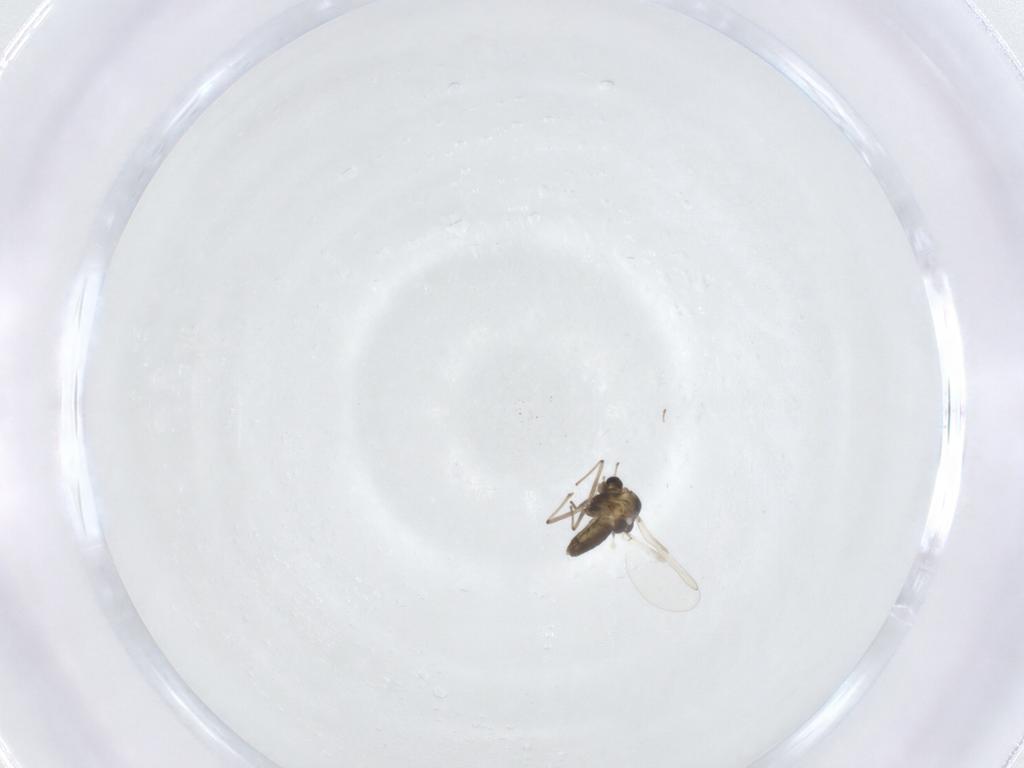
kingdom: Animalia
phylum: Arthropoda
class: Insecta
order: Diptera
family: Chironomidae
